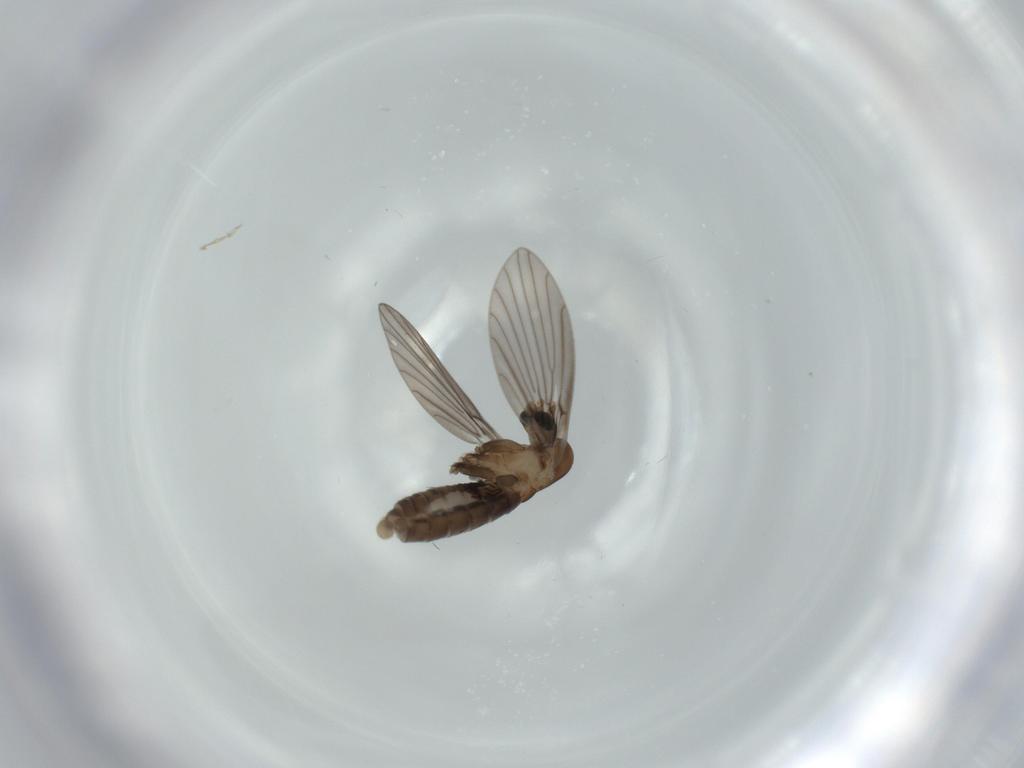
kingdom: Animalia
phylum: Arthropoda
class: Insecta
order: Diptera
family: Psychodidae
